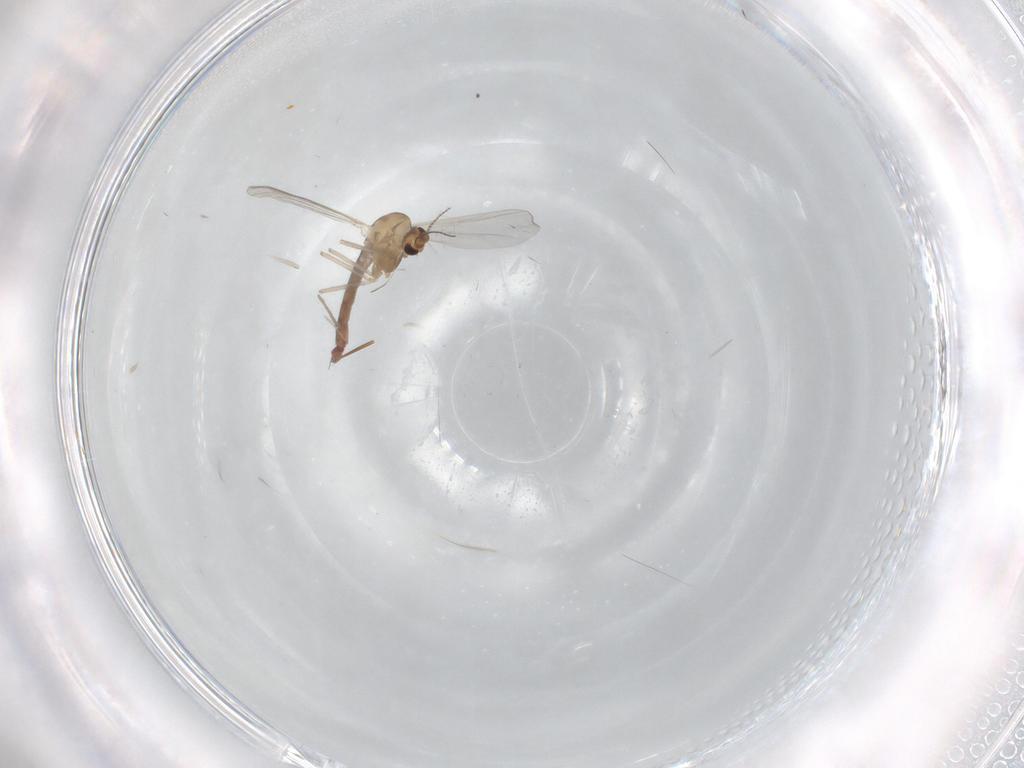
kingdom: Animalia
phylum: Arthropoda
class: Insecta
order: Diptera
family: Chironomidae
